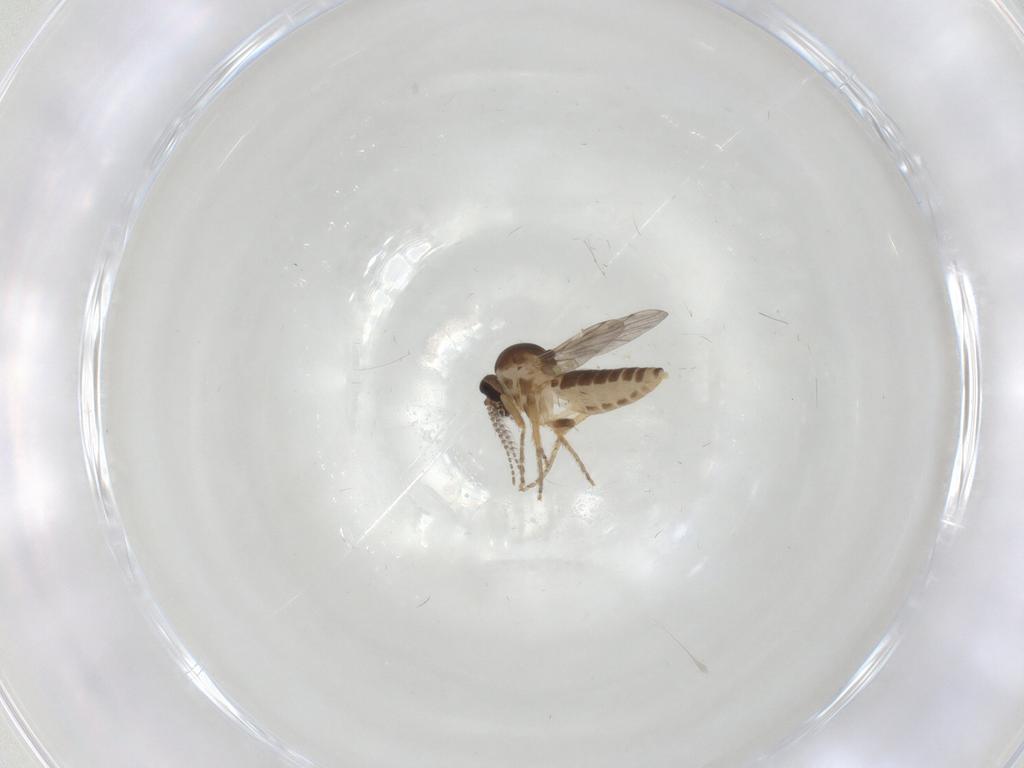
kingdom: Animalia
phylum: Arthropoda
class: Insecta
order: Diptera
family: Ceratopogonidae
